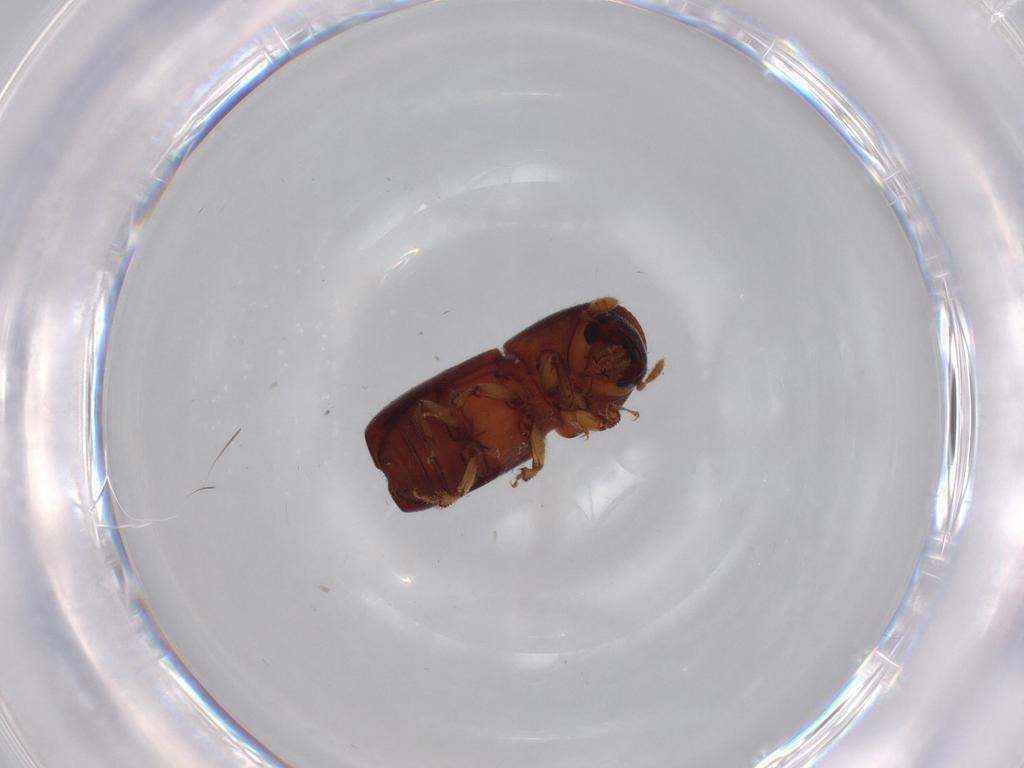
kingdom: Animalia
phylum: Arthropoda
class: Insecta
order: Coleoptera
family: Curculionidae
